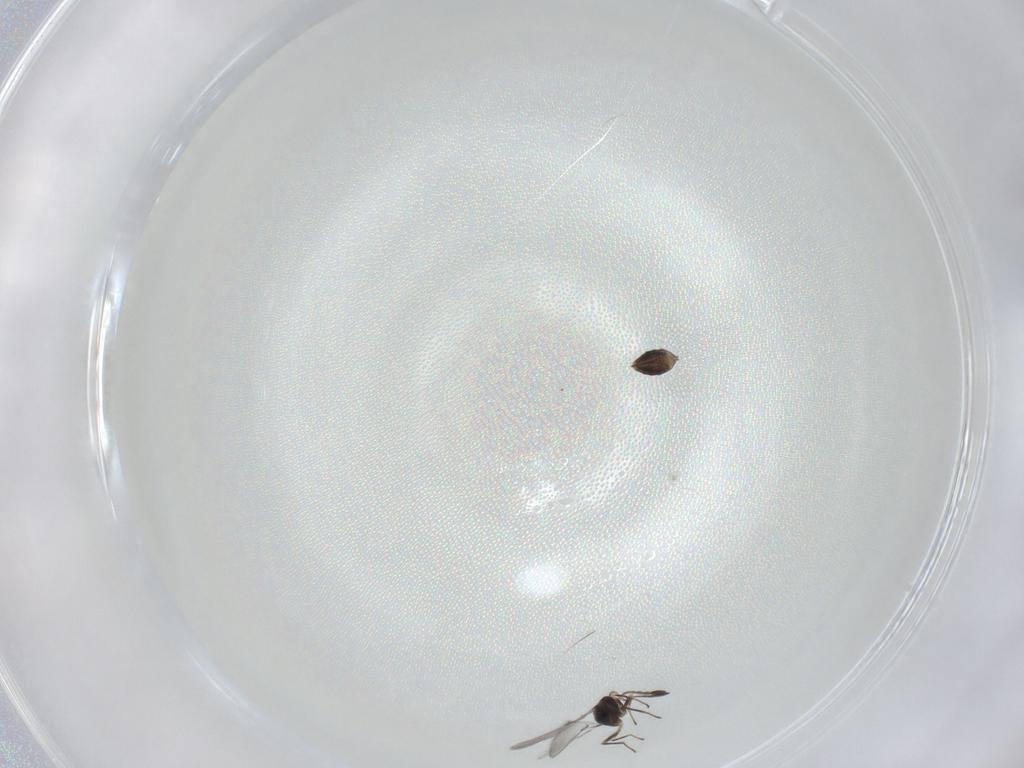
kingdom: Animalia
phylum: Arthropoda
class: Insecta
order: Hymenoptera
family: Mymaridae
